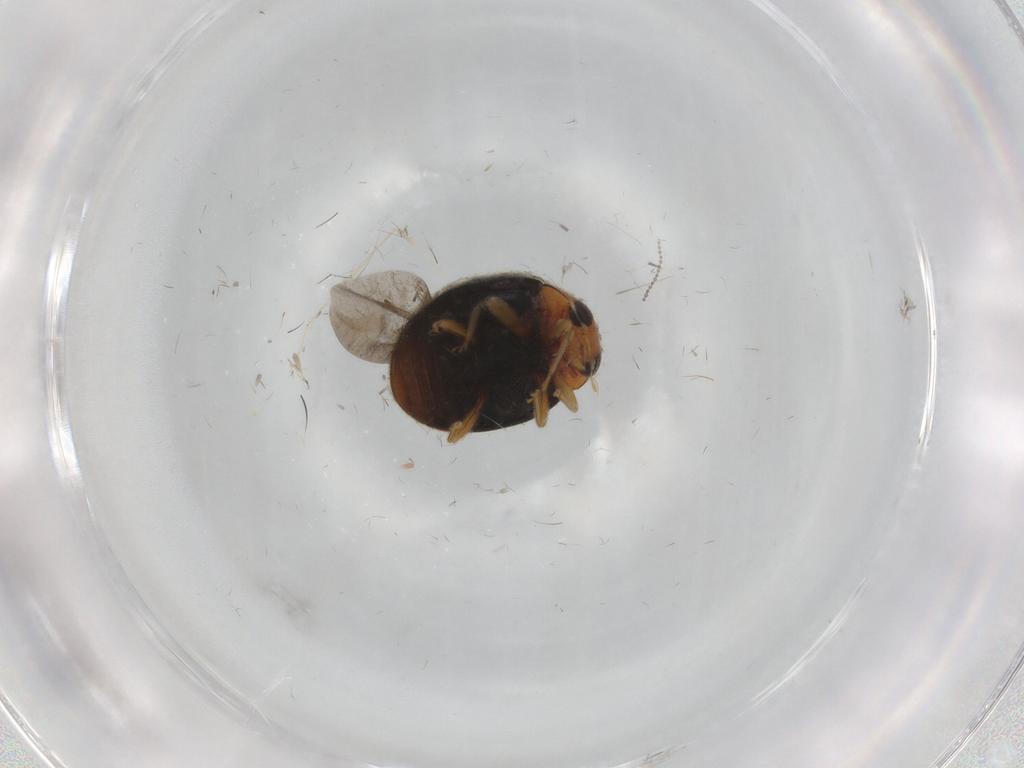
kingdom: Animalia
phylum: Arthropoda
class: Insecta
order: Coleoptera
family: Coccinellidae
